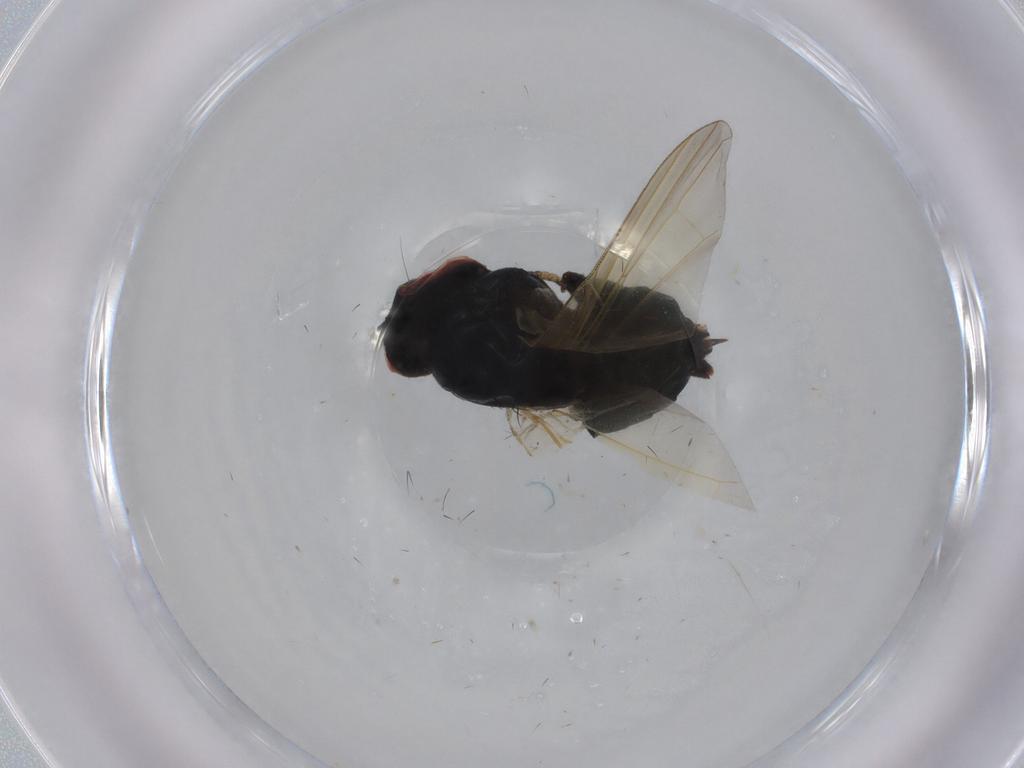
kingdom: Animalia
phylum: Arthropoda
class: Insecta
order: Diptera
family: Lonchaeidae
